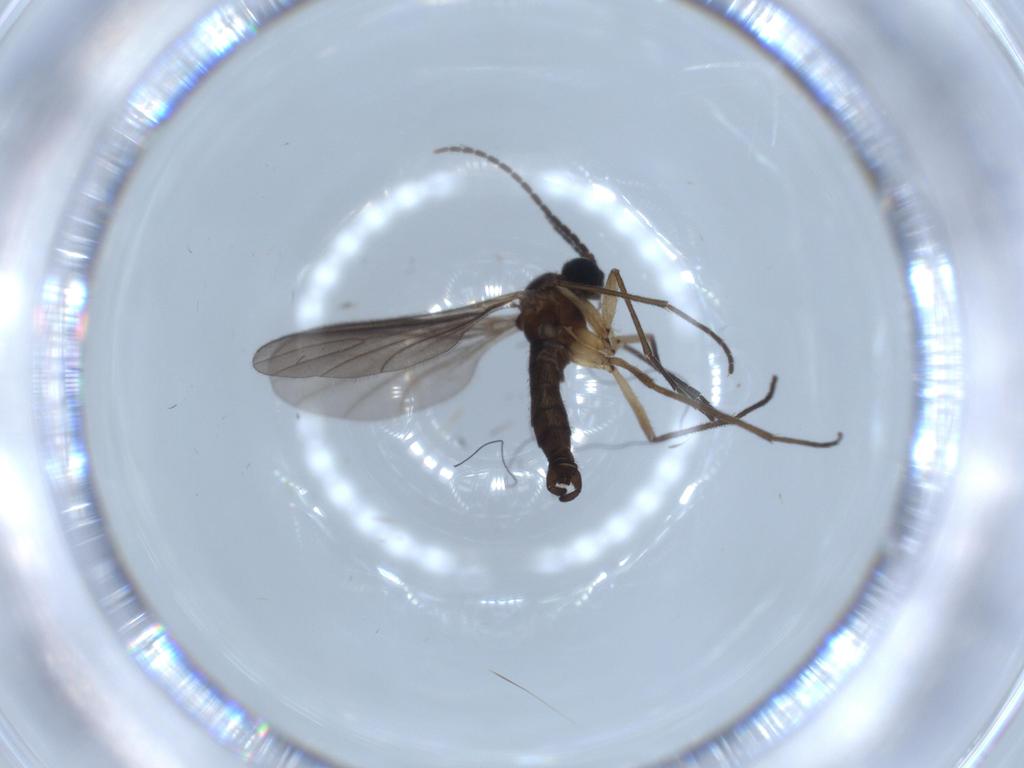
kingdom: Animalia
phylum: Arthropoda
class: Insecta
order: Diptera
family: Sciaridae
